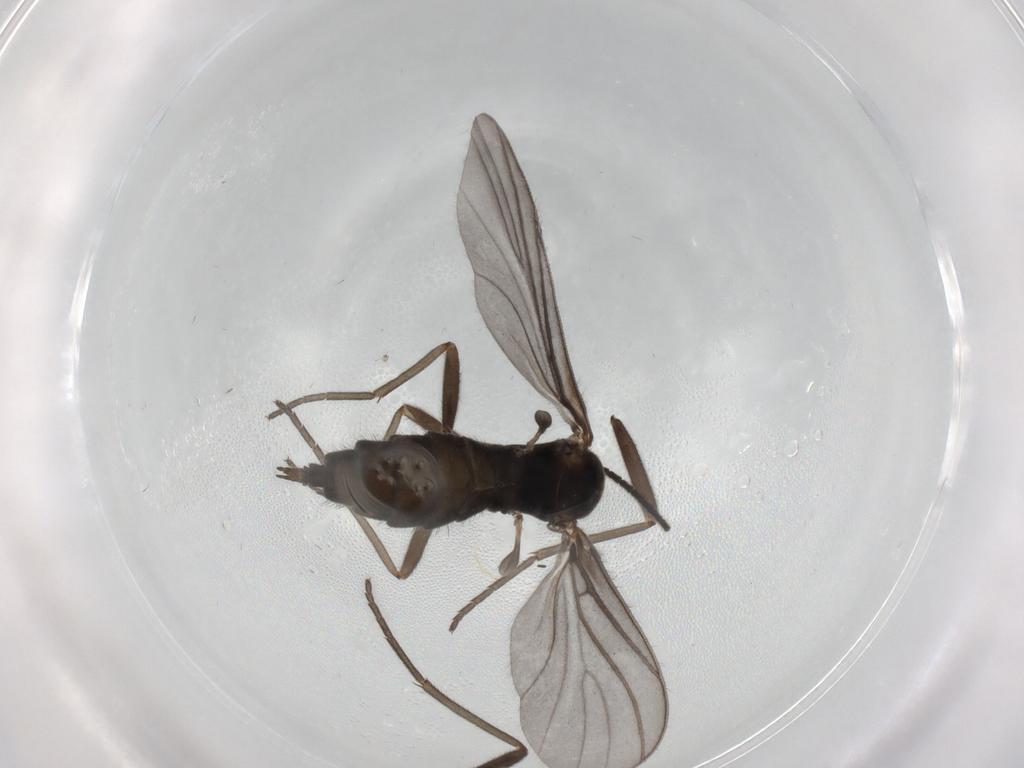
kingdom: Animalia
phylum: Arthropoda
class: Insecta
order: Diptera
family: Sciaridae
